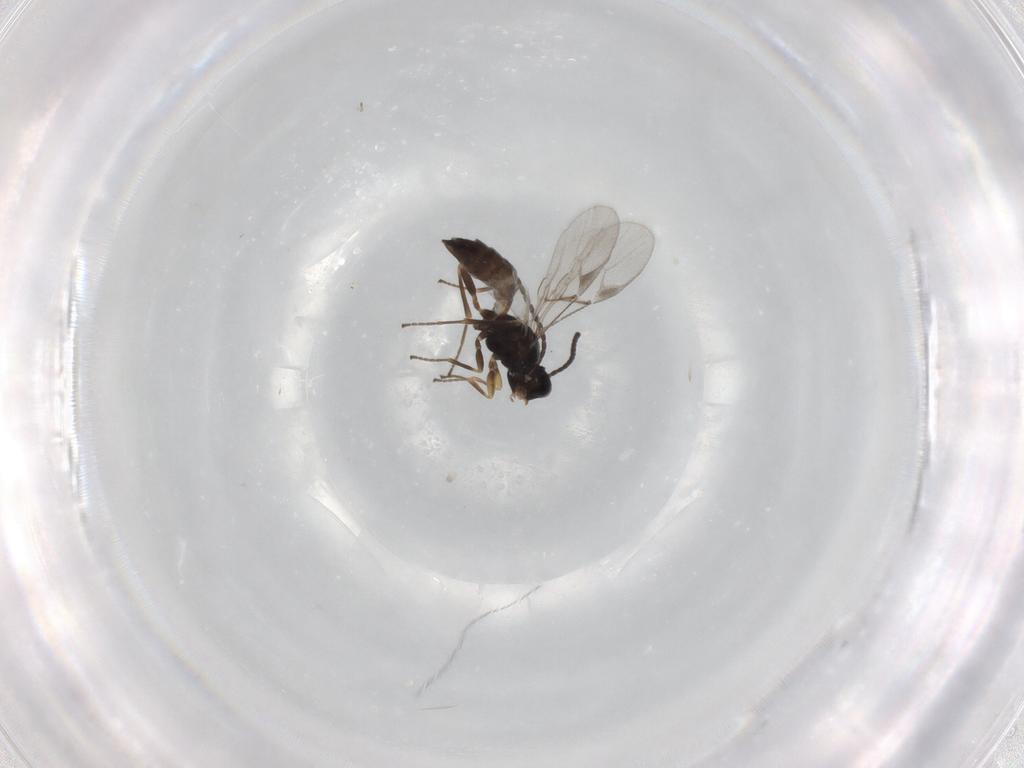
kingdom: Animalia
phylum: Arthropoda
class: Insecta
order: Hymenoptera
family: Braconidae
